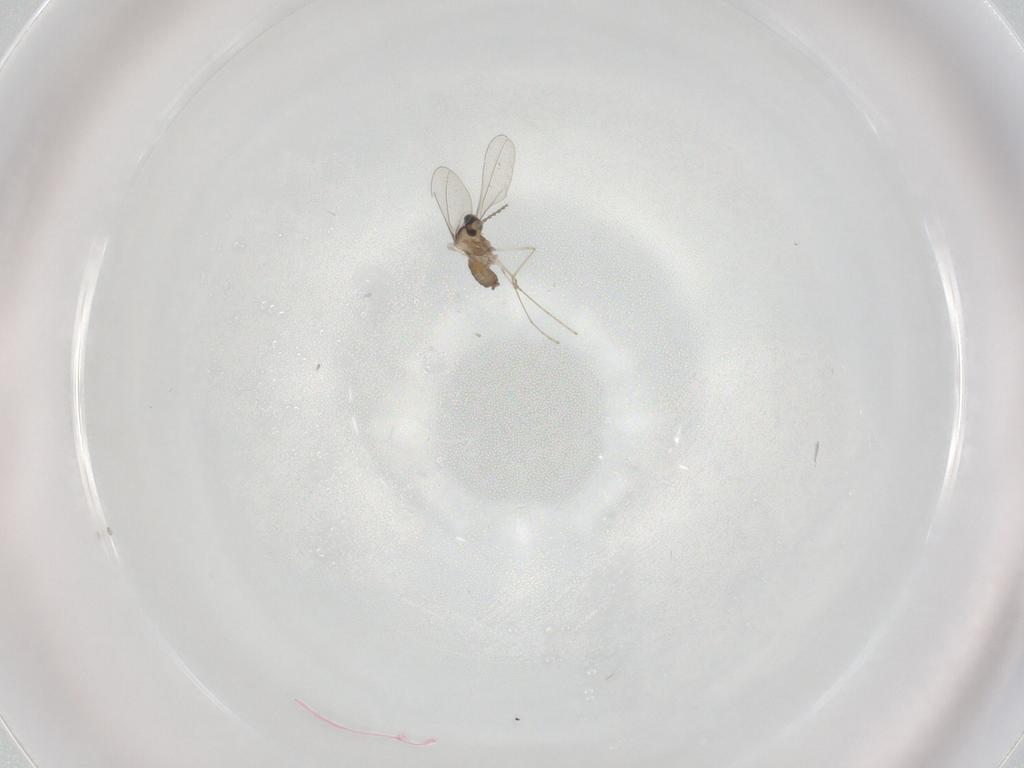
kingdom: Animalia
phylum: Arthropoda
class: Insecta
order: Diptera
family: Cecidomyiidae
